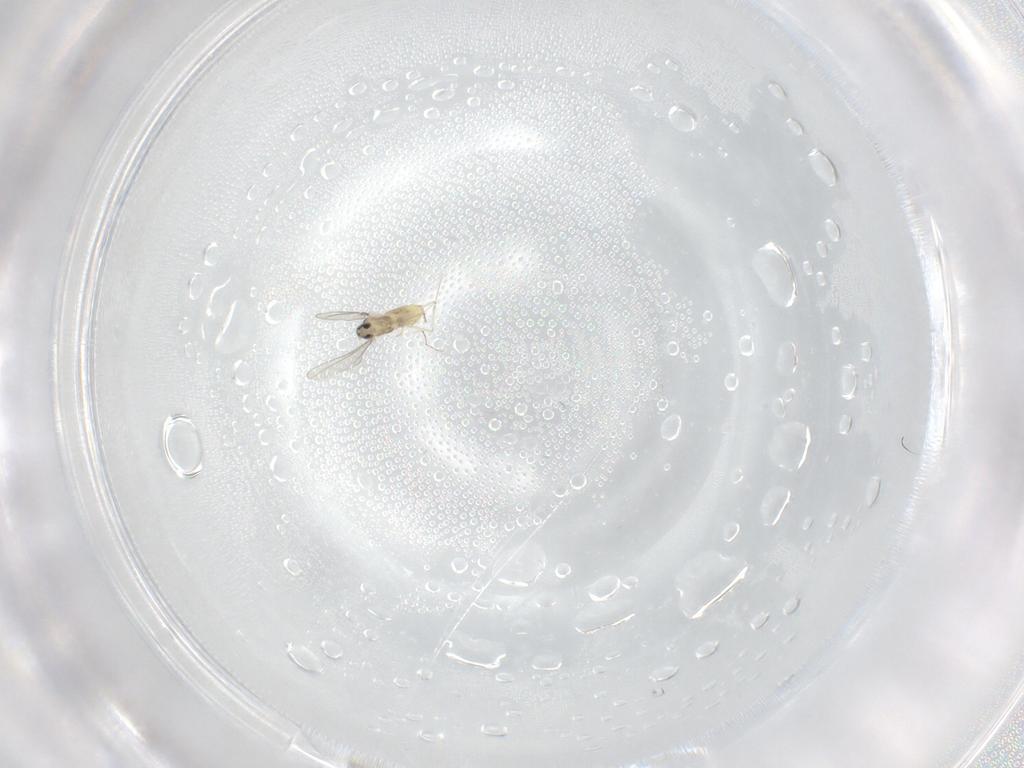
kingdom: Animalia
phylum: Arthropoda
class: Insecta
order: Diptera
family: Cecidomyiidae
